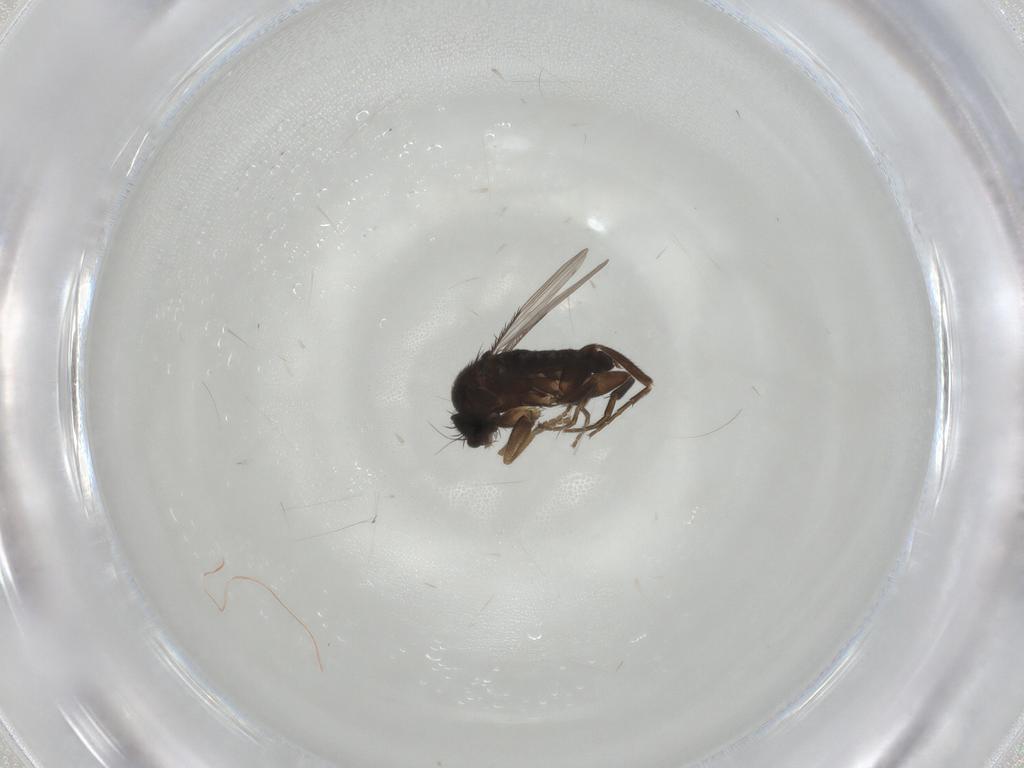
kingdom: Animalia
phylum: Arthropoda
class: Insecta
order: Diptera
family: Phoridae
